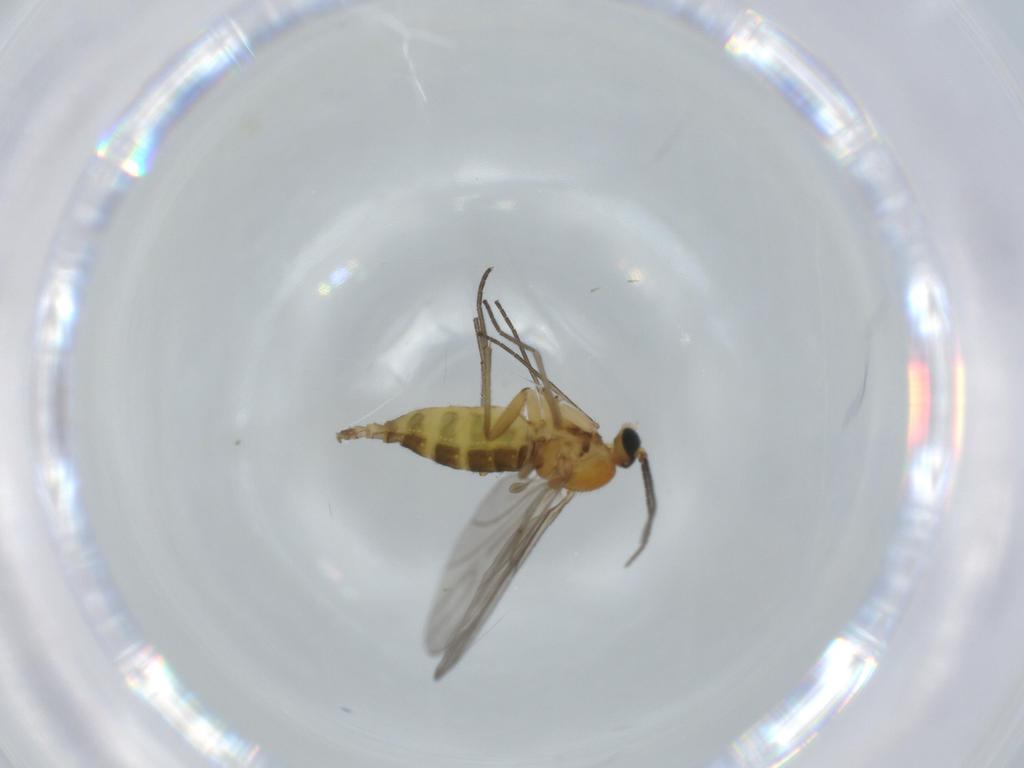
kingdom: Animalia
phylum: Arthropoda
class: Insecta
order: Diptera
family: Sciaridae
